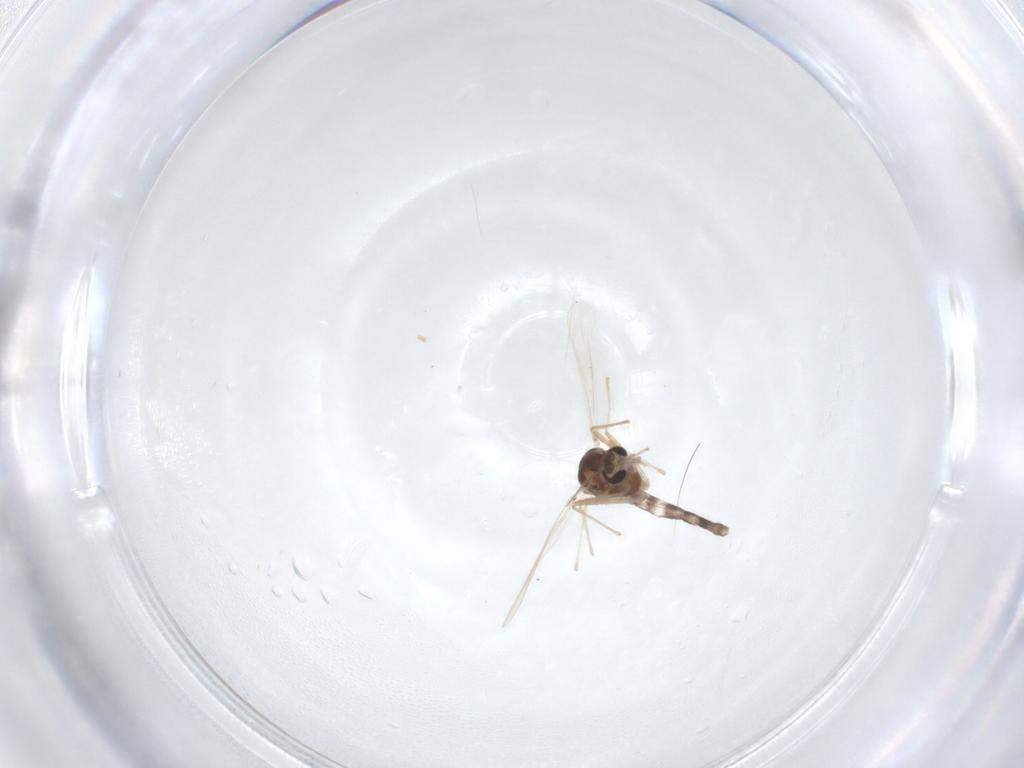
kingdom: Animalia
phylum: Arthropoda
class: Insecta
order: Diptera
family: Chironomidae
